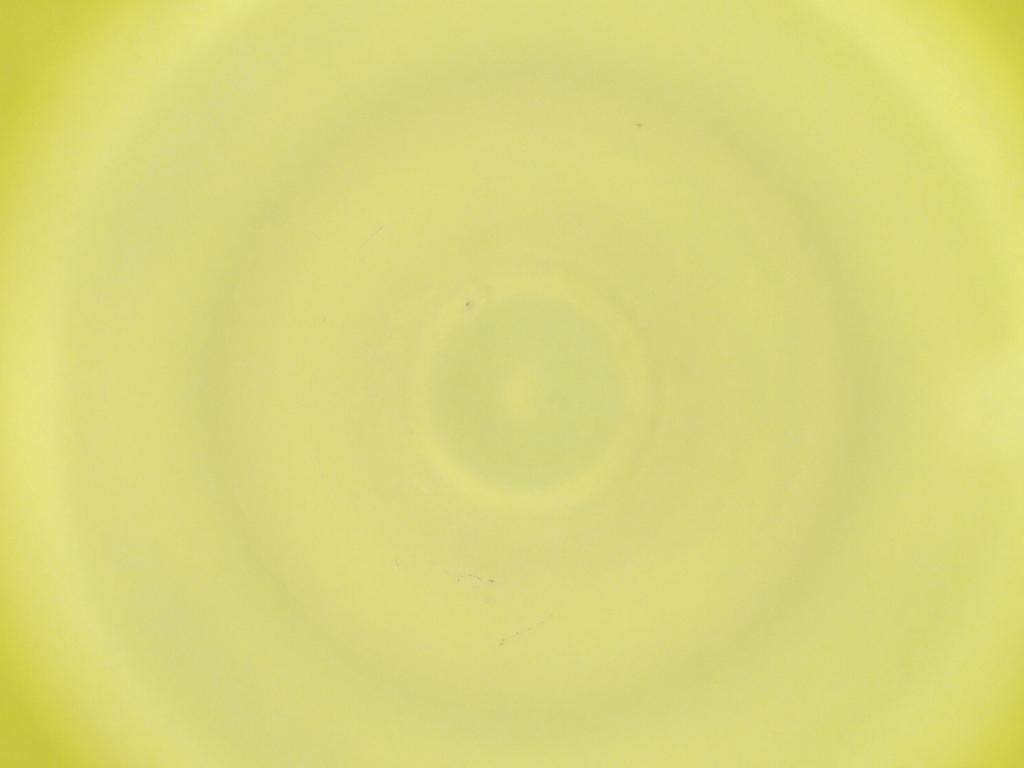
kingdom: Animalia
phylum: Arthropoda
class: Insecta
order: Diptera
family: Cecidomyiidae
